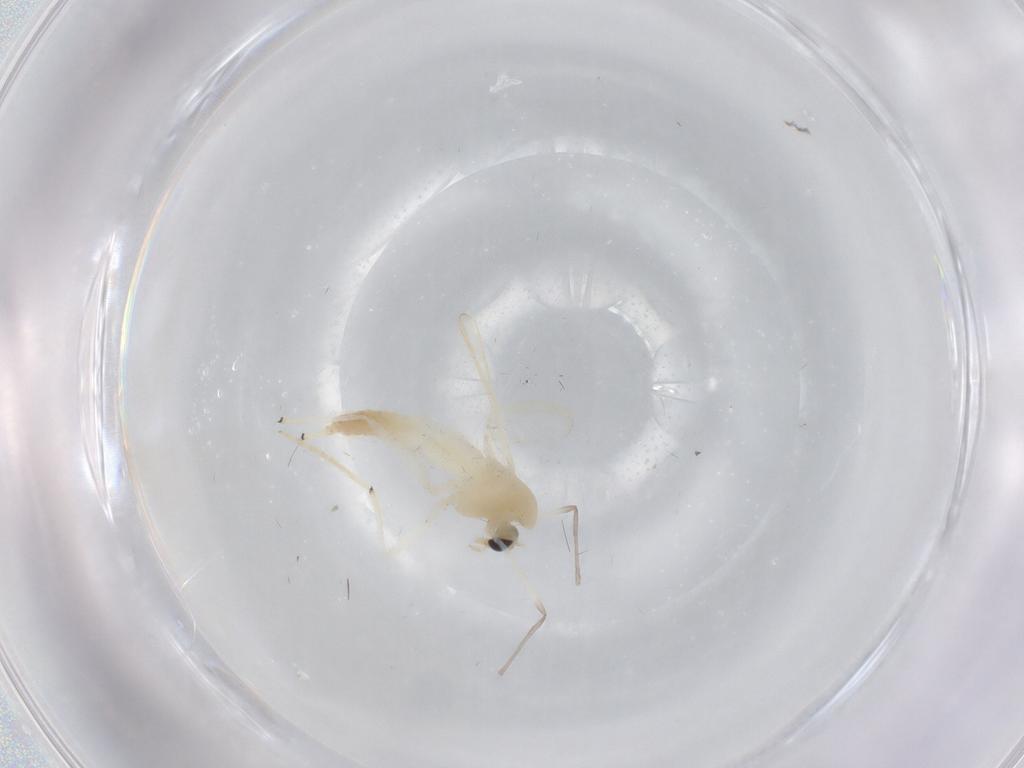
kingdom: Animalia
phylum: Arthropoda
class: Insecta
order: Diptera
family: Chironomidae
